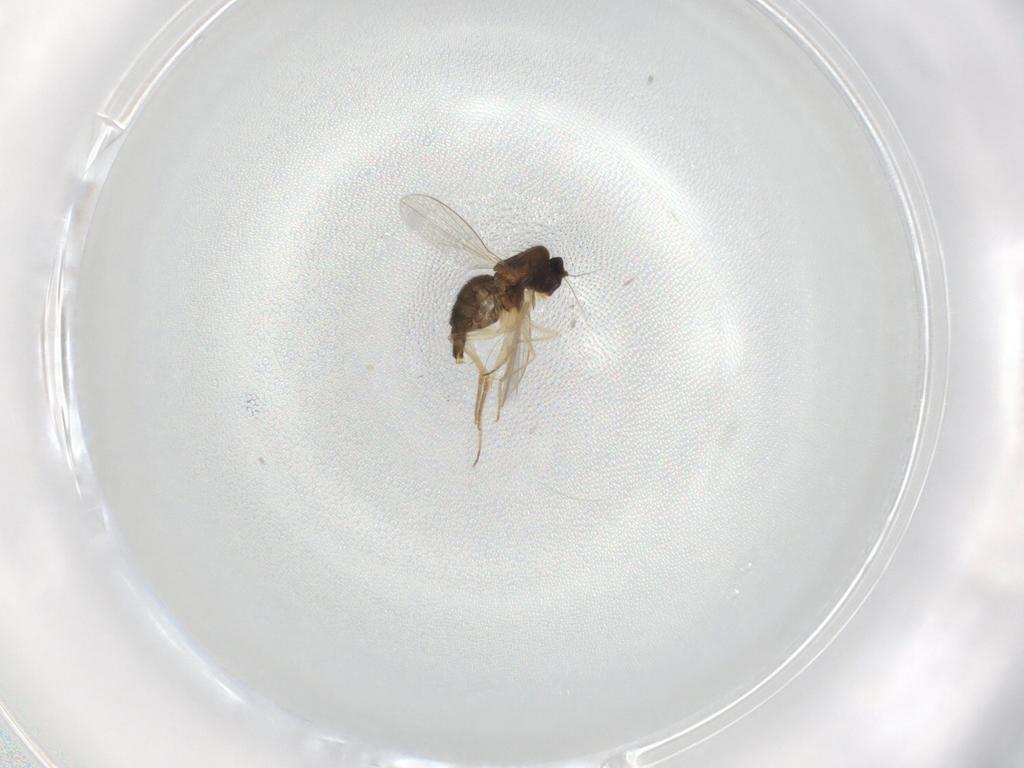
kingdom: Animalia
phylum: Arthropoda
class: Insecta
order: Diptera
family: Dolichopodidae
